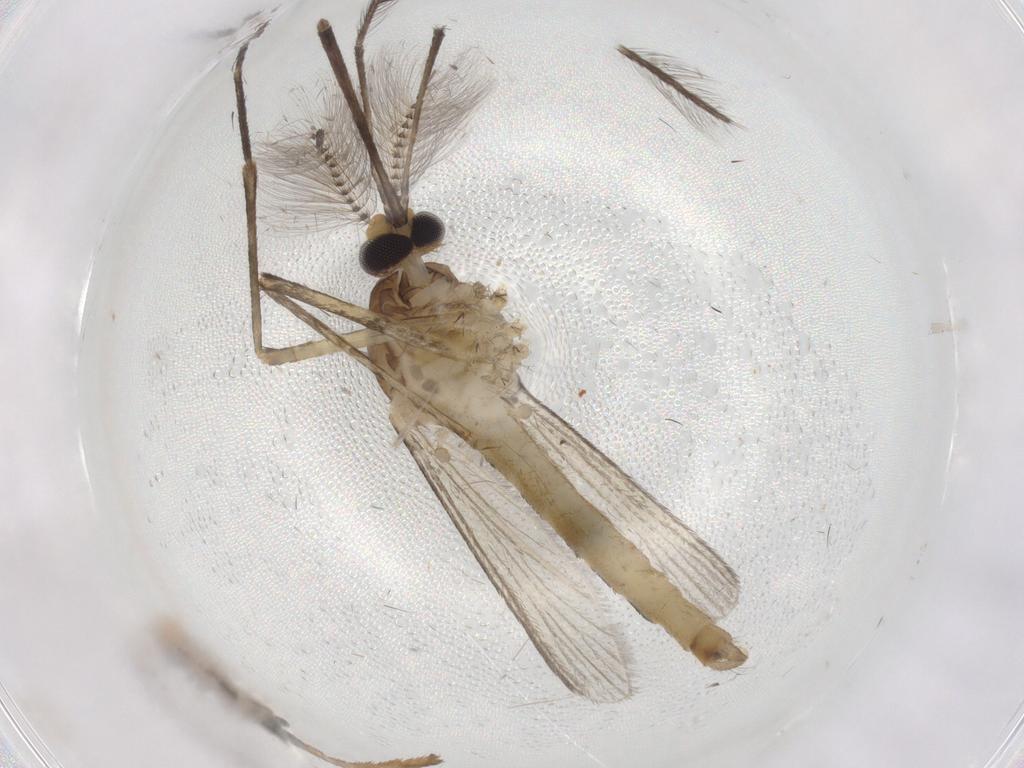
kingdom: Animalia
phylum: Arthropoda
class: Insecta
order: Diptera
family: Culicidae
